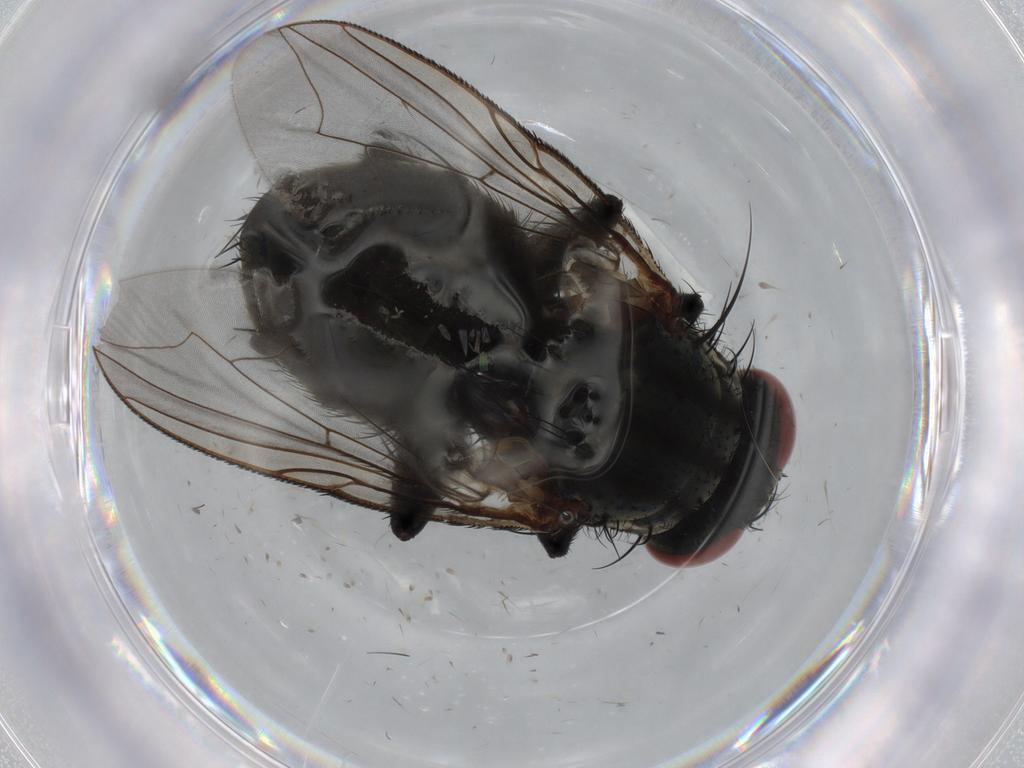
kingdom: Animalia
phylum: Arthropoda
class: Insecta
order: Diptera
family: Sarcophagidae
